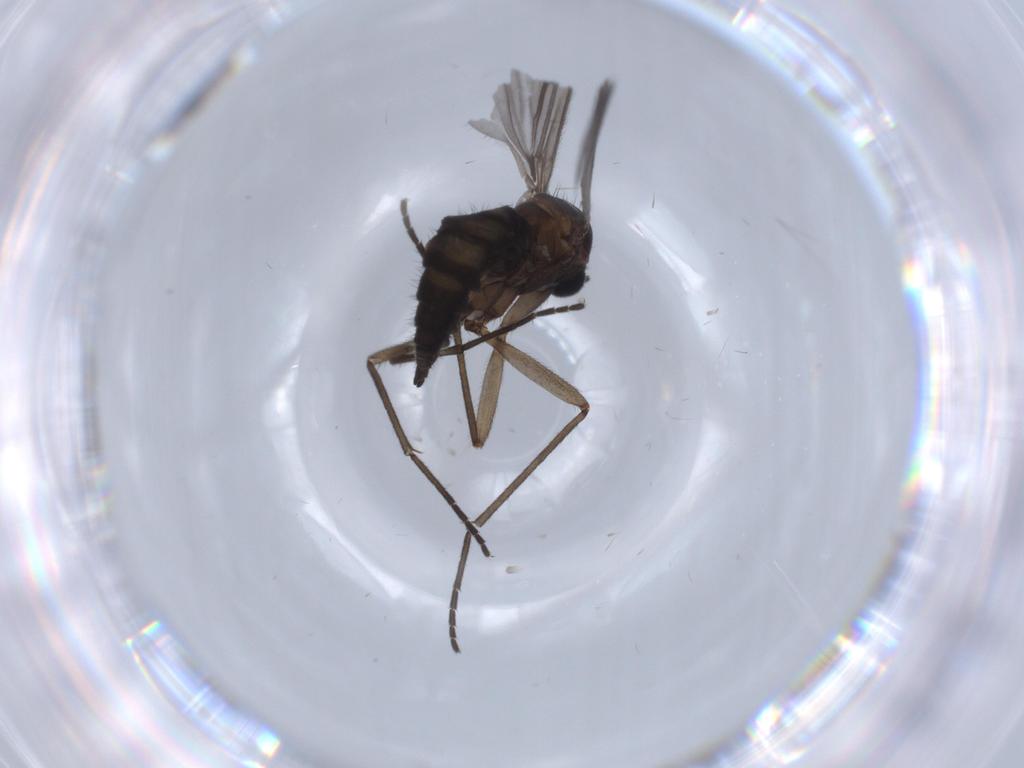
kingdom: Animalia
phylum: Arthropoda
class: Insecta
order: Diptera
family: Sciaridae
